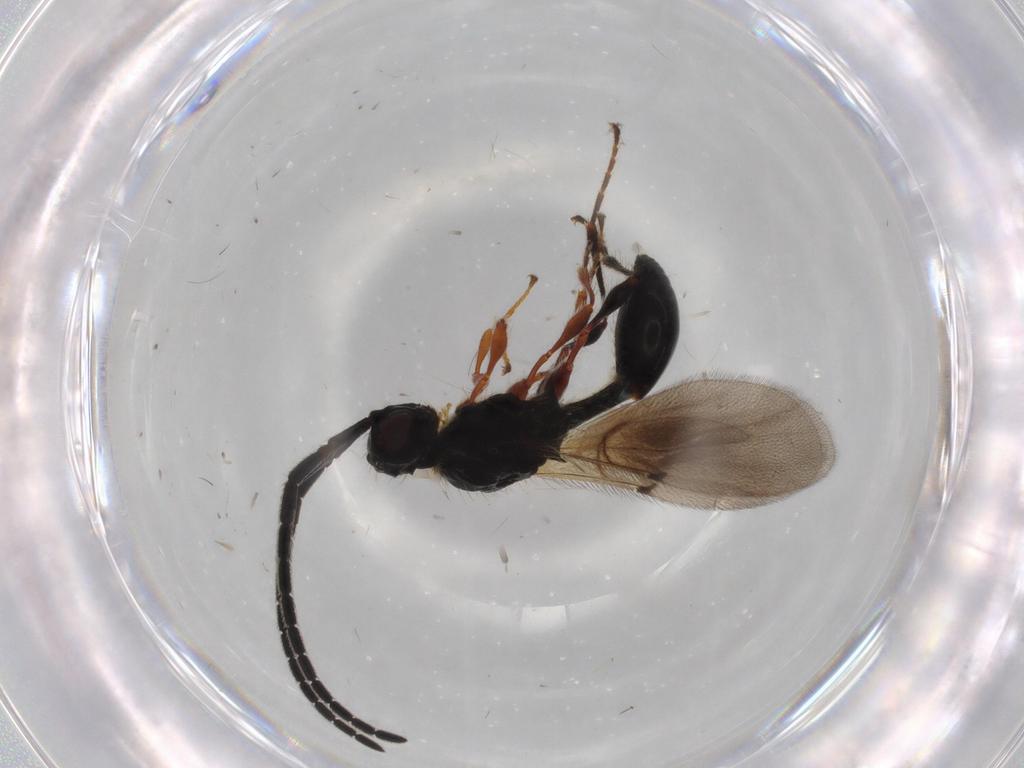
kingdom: Animalia
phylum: Arthropoda
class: Insecta
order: Hymenoptera
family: Diapriidae
